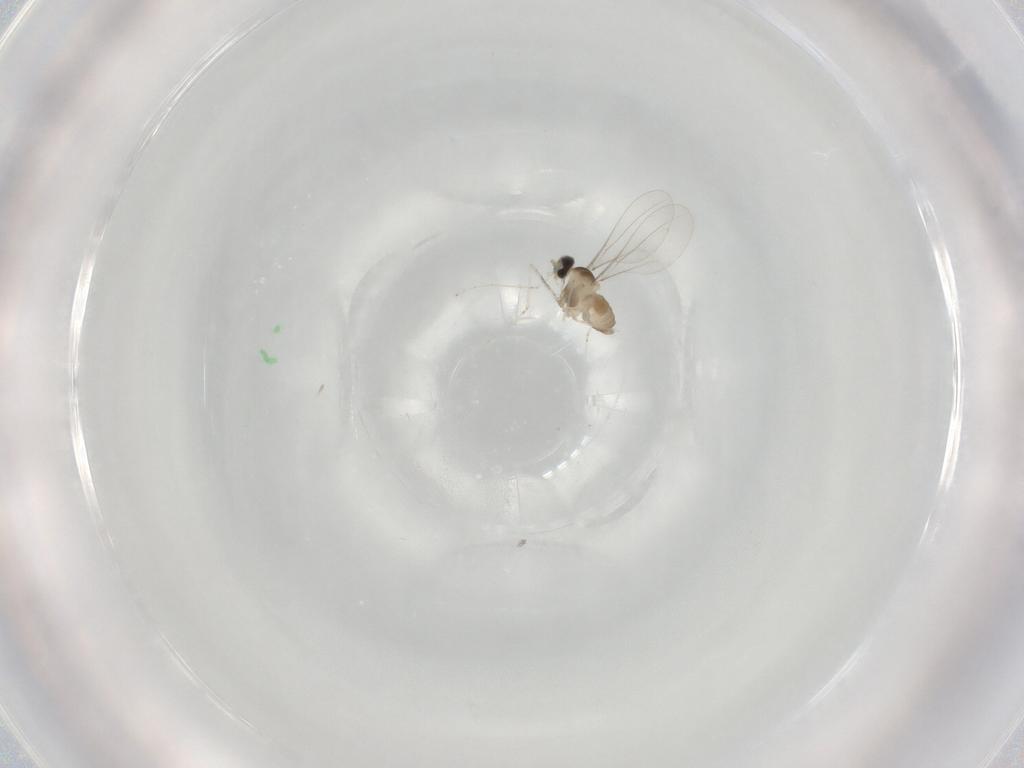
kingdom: Animalia
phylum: Arthropoda
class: Insecta
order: Diptera
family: Cecidomyiidae
